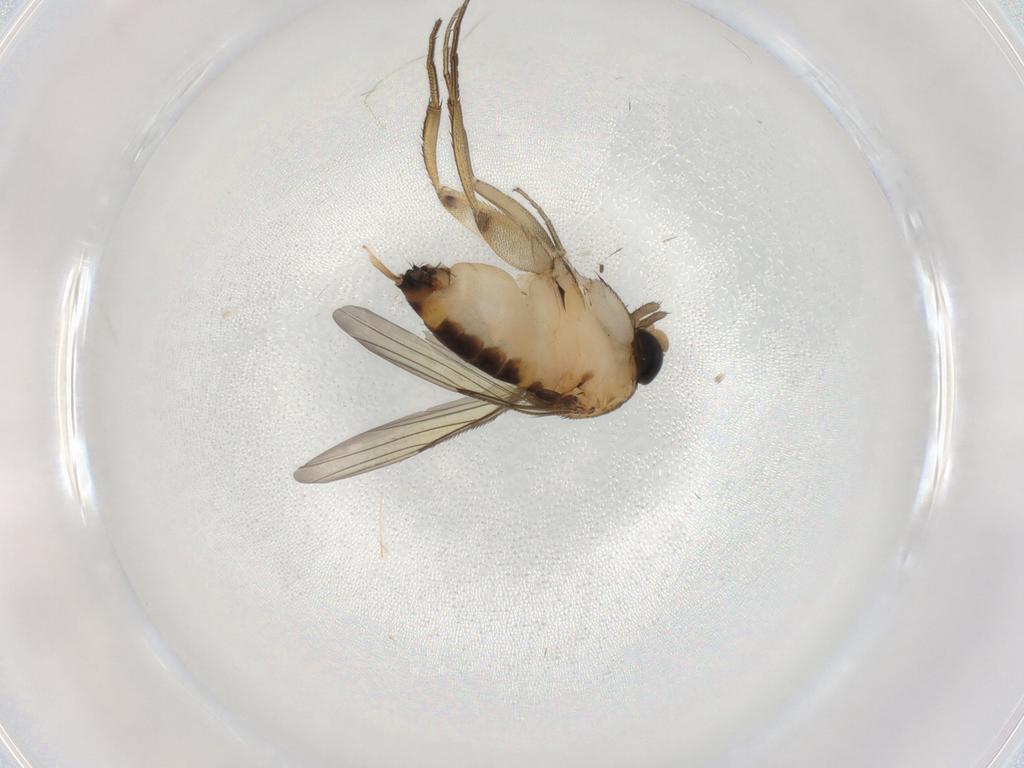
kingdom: Animalia
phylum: Arthropoda
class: Insecta
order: Diptera
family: Phoridae
